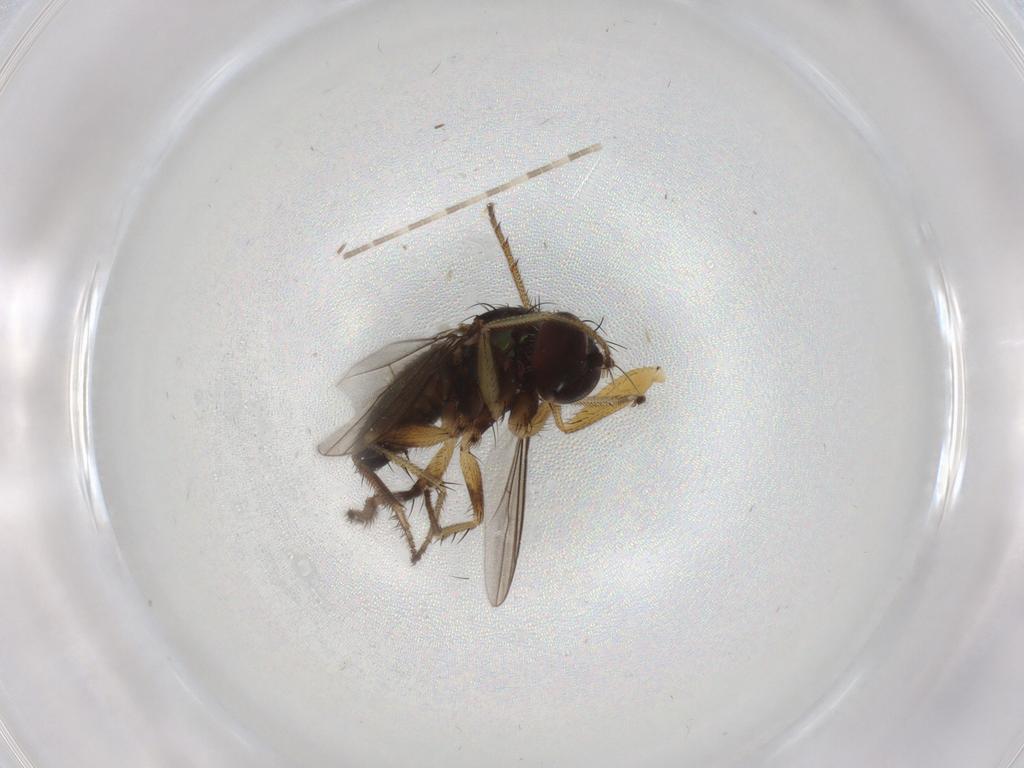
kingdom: Animalia
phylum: Arthropoda
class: Insecta
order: Diptera
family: Dolichopodidae
